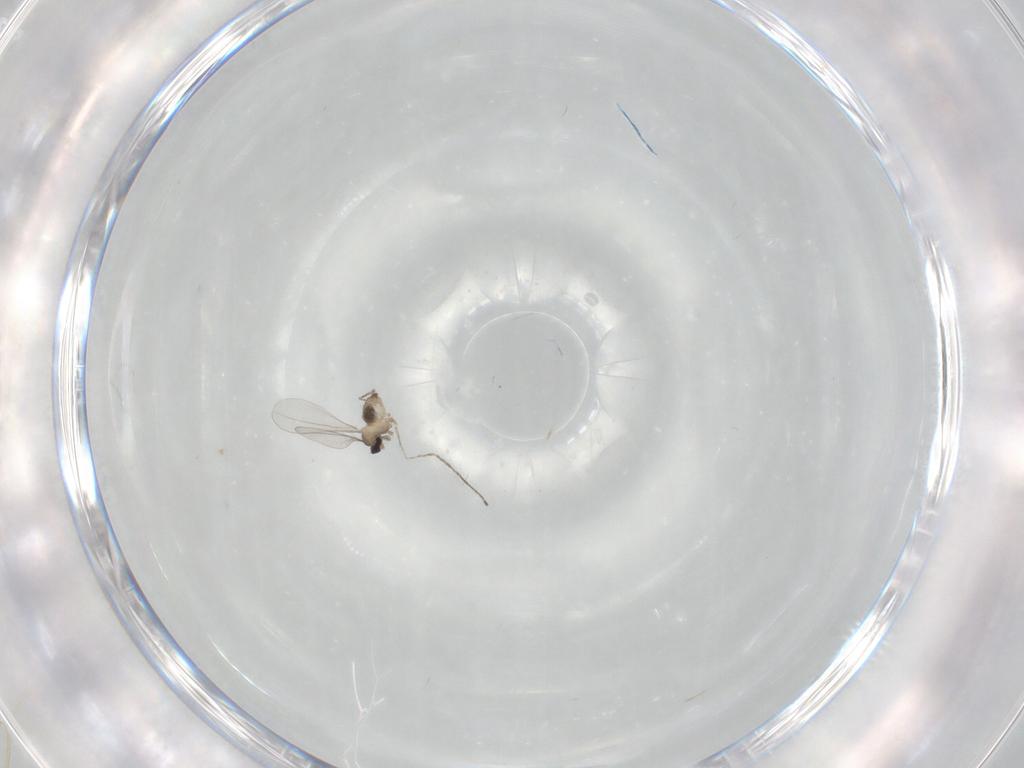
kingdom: Animalia
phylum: Arthropoda
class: Insecta
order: Diptera
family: Cecidomyiidae
